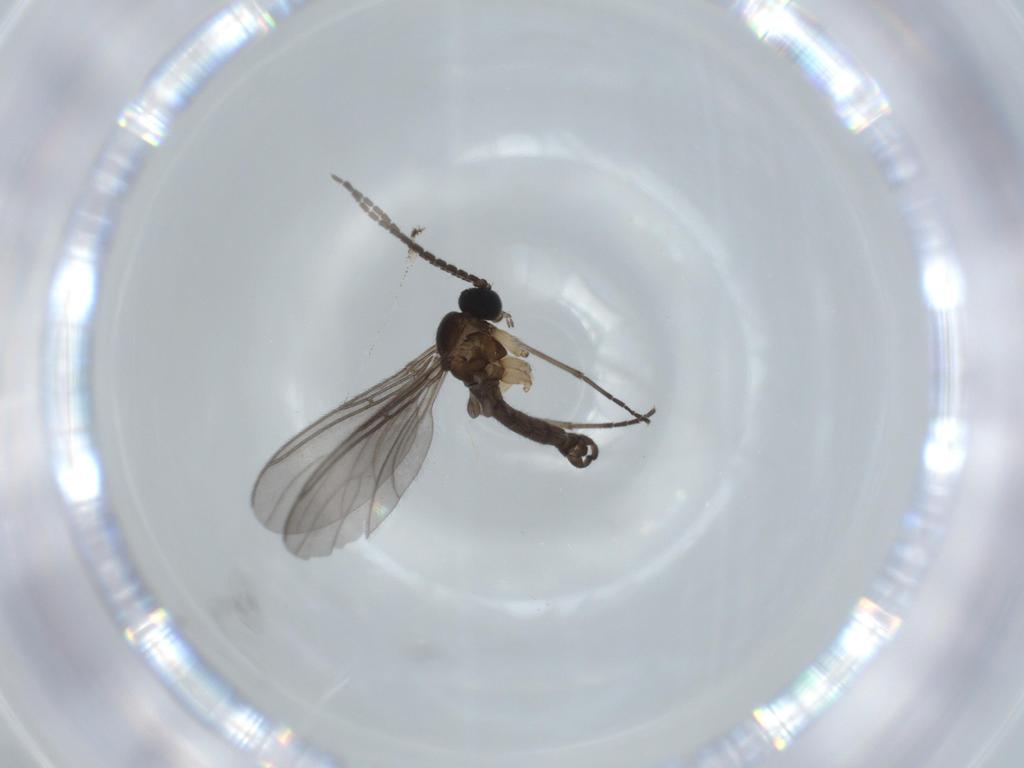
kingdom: Animalia
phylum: Arthropoda
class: Insecta
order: Diptera
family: Sciaridae
